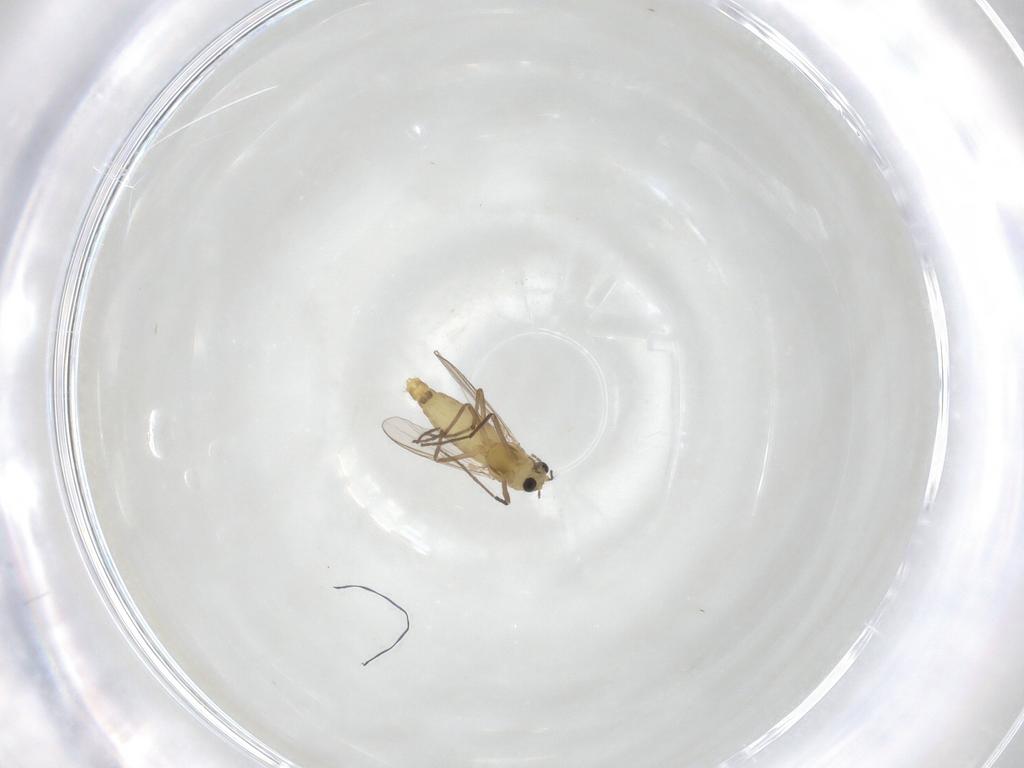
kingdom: Animalia
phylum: Arthropoda
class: Insecta
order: Diptera
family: Chironomidae
